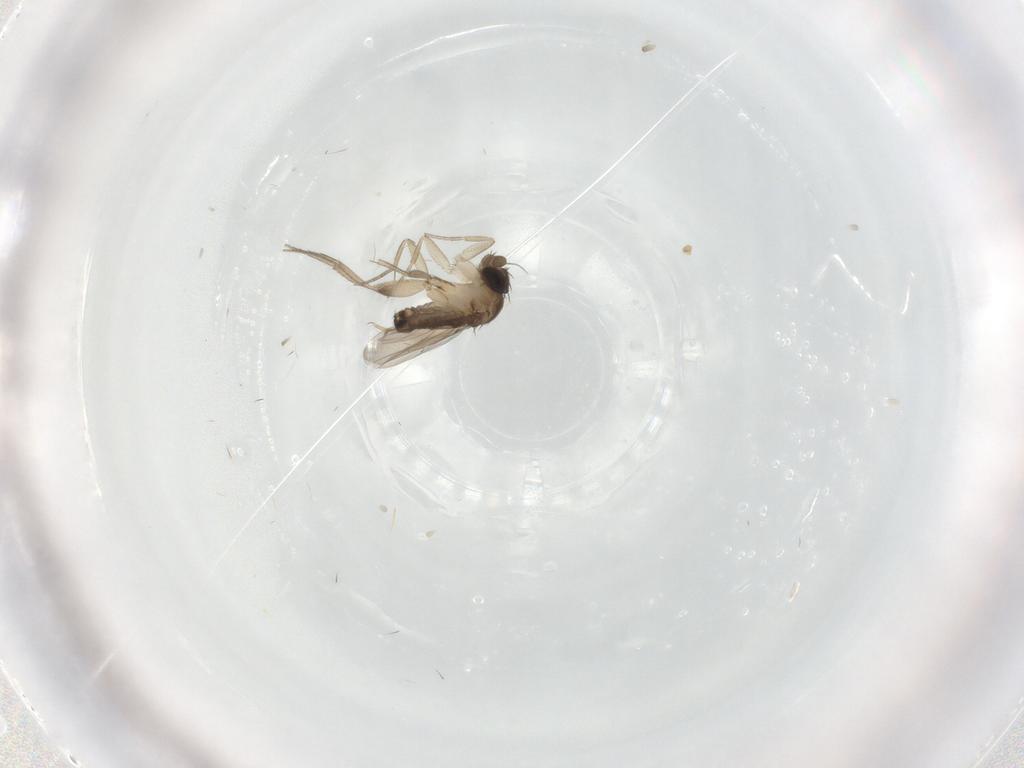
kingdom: Animalia
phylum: Arthropoda
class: Insecta
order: Diptera
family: Phoridae
